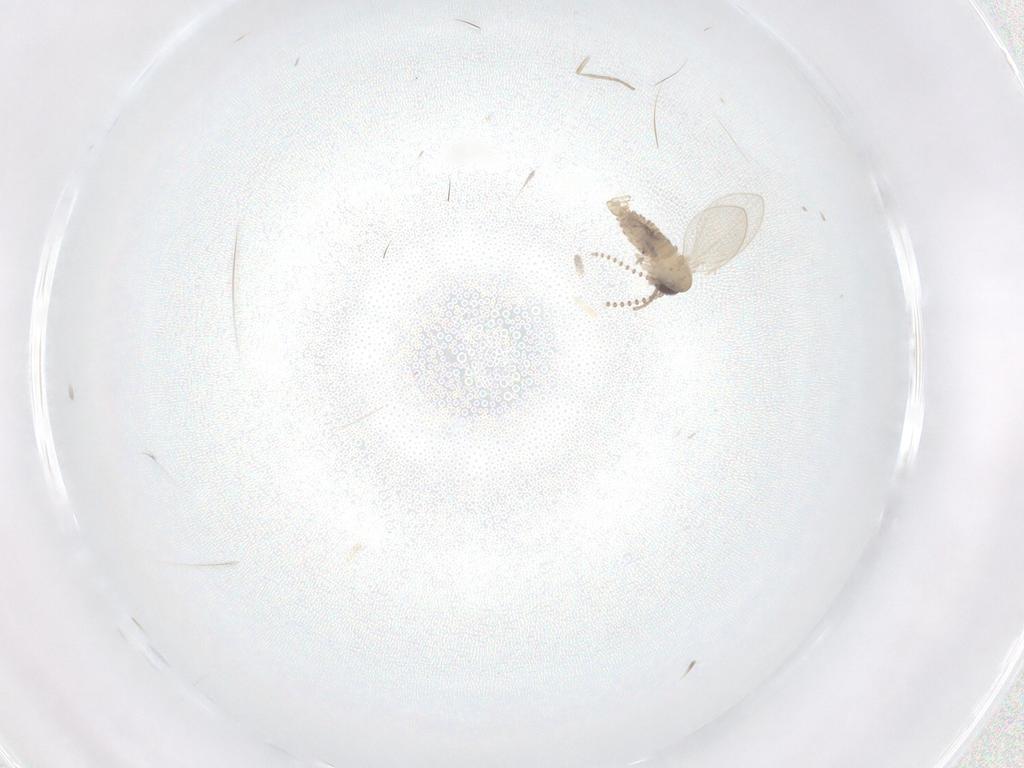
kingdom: Animalia
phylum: Arthropoda
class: Insecta
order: Diptera
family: Psychodidae
